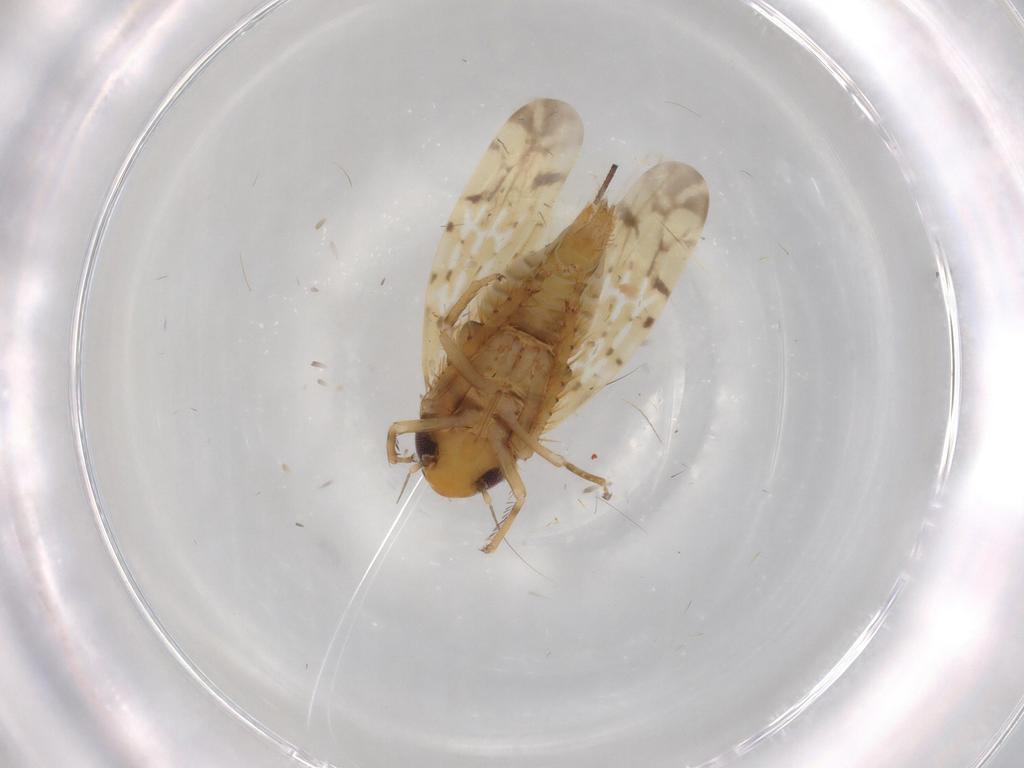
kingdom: Animalia
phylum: Arthropoda
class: Insecta
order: Hemiptera
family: Cicadellidae
